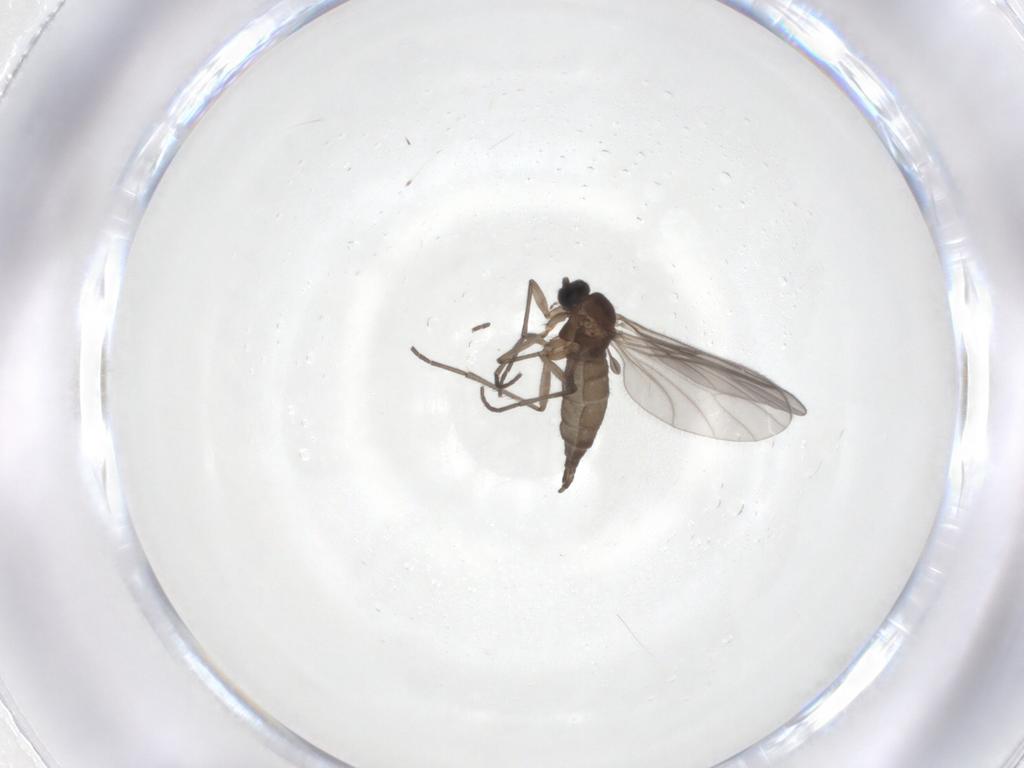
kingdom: Animalia
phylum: Arthropoda
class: Insecta
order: Diptera
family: Sciaridae
